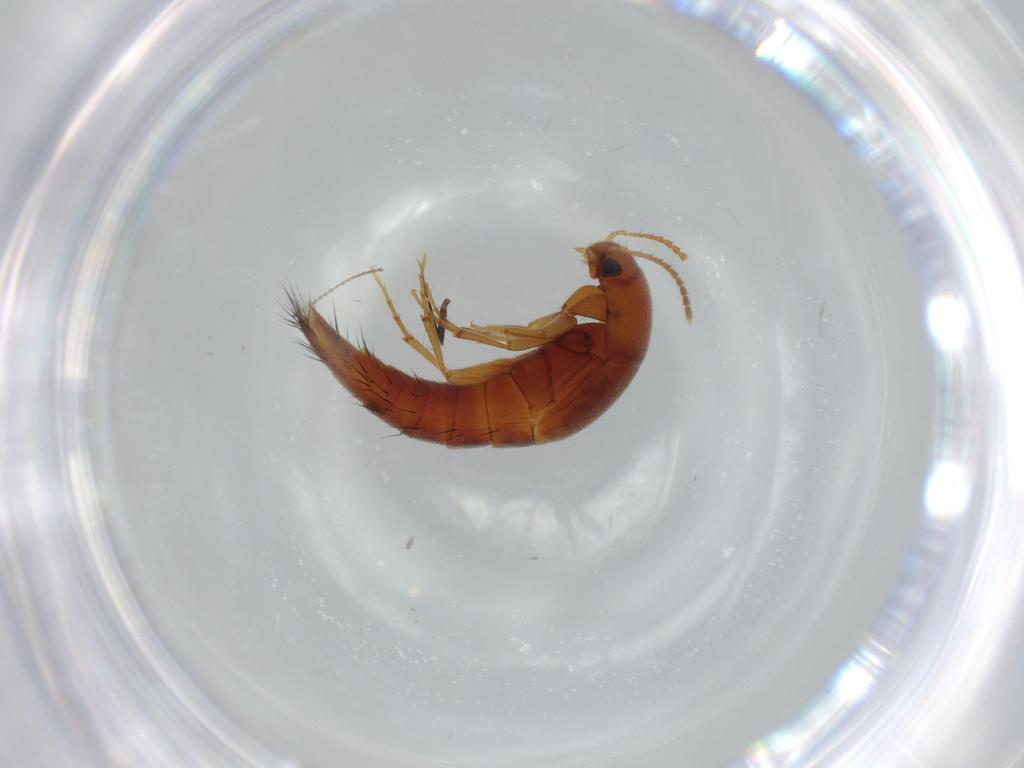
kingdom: Animalia
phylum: Arthropoda
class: Insecta
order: Coleoptera
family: Staphylinidae
